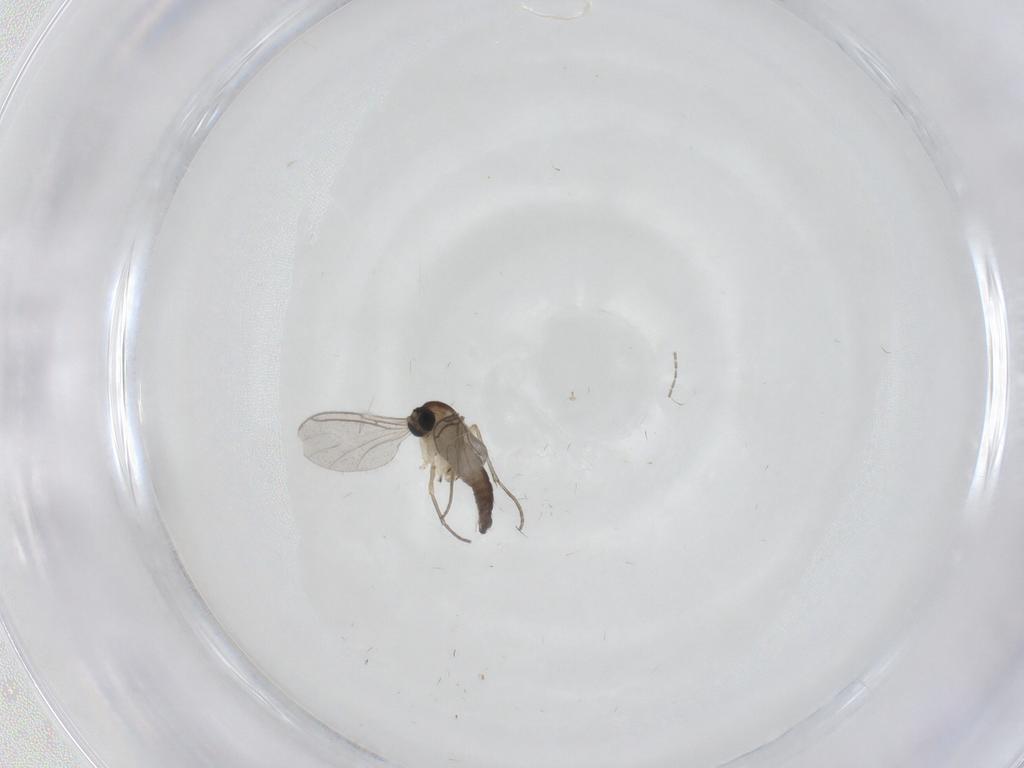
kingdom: Animalia
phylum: Arthropoda
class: Insecta
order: Diptera
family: Sciaridae
